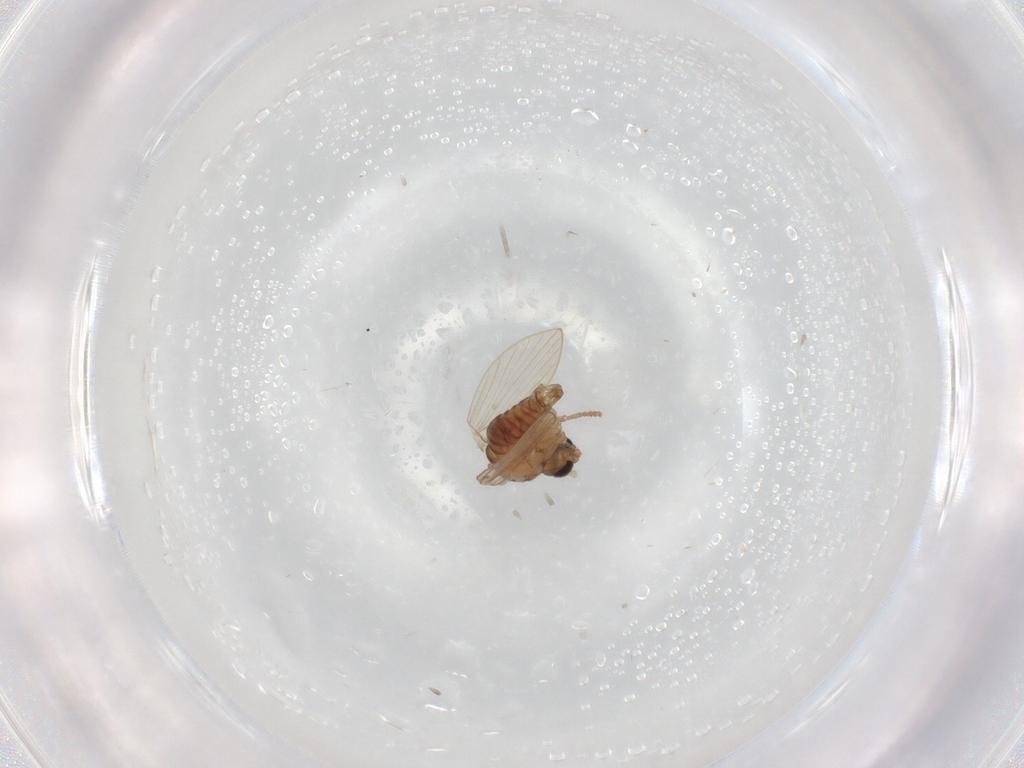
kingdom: Animalia
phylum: Arthropoda
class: Insecta
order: Diptera
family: Psychodidae
